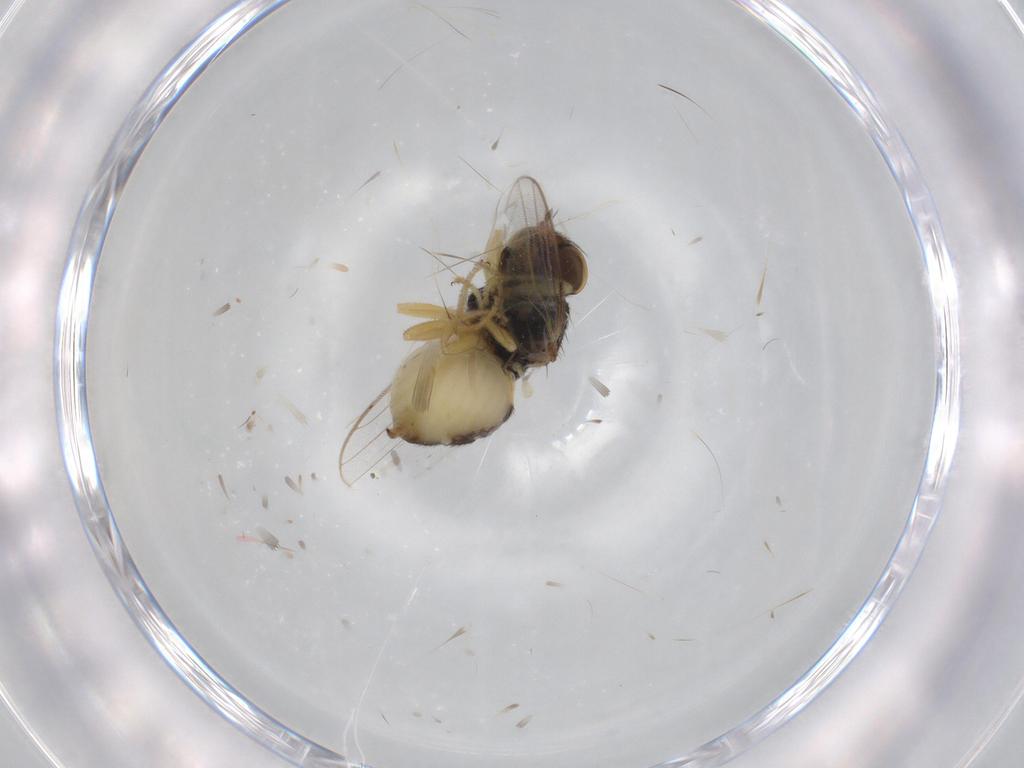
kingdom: Animalia
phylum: Arthropoda
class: Insecta
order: Diptera
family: Chloropidae
